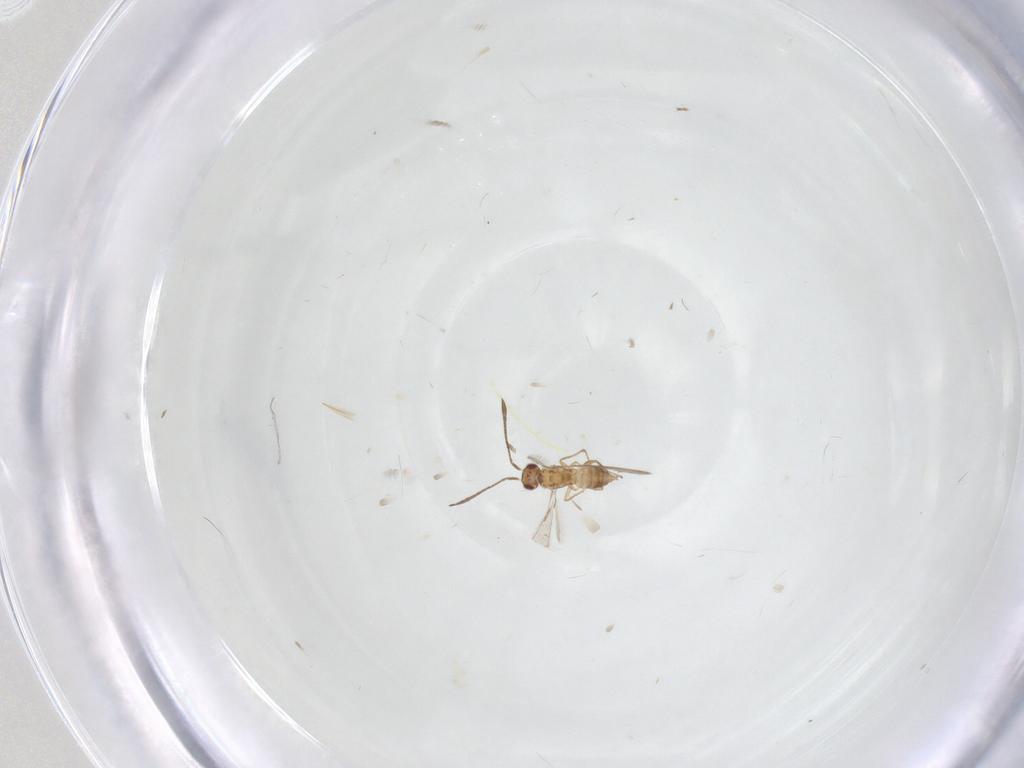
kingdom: Animalia
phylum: Arthropoda
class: Insecta
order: Hymenoptera
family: Mymaridae
